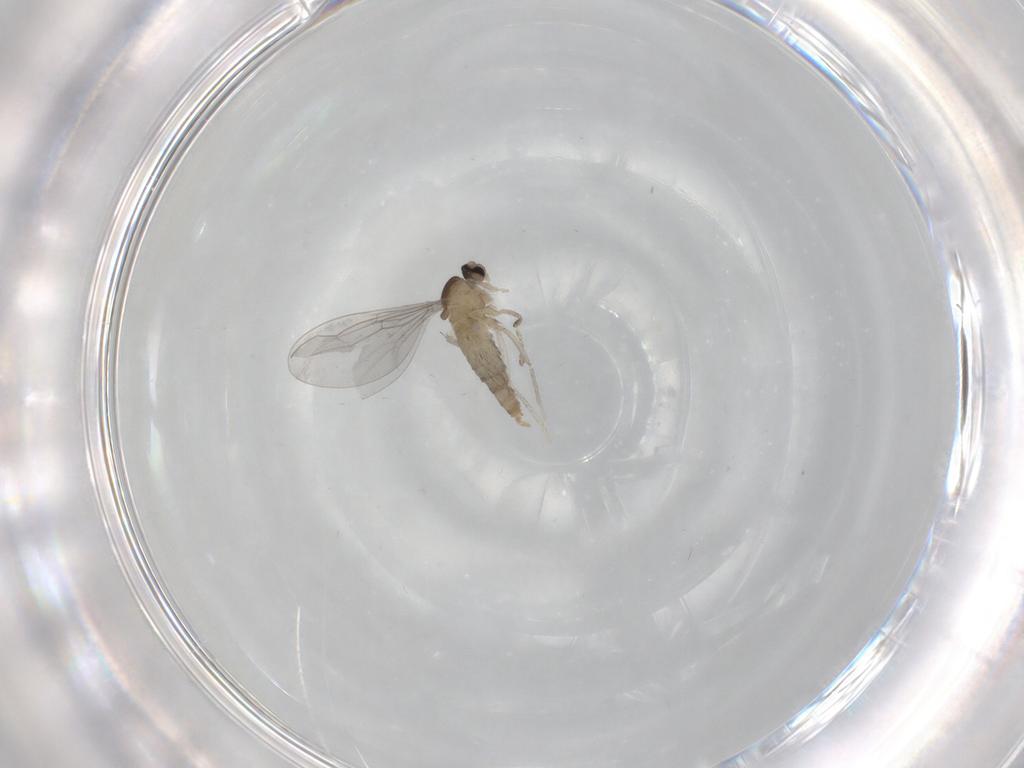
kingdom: Animalia
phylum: Arthropoda
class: Insecta
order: Diptera
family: Cecidomyiidae
